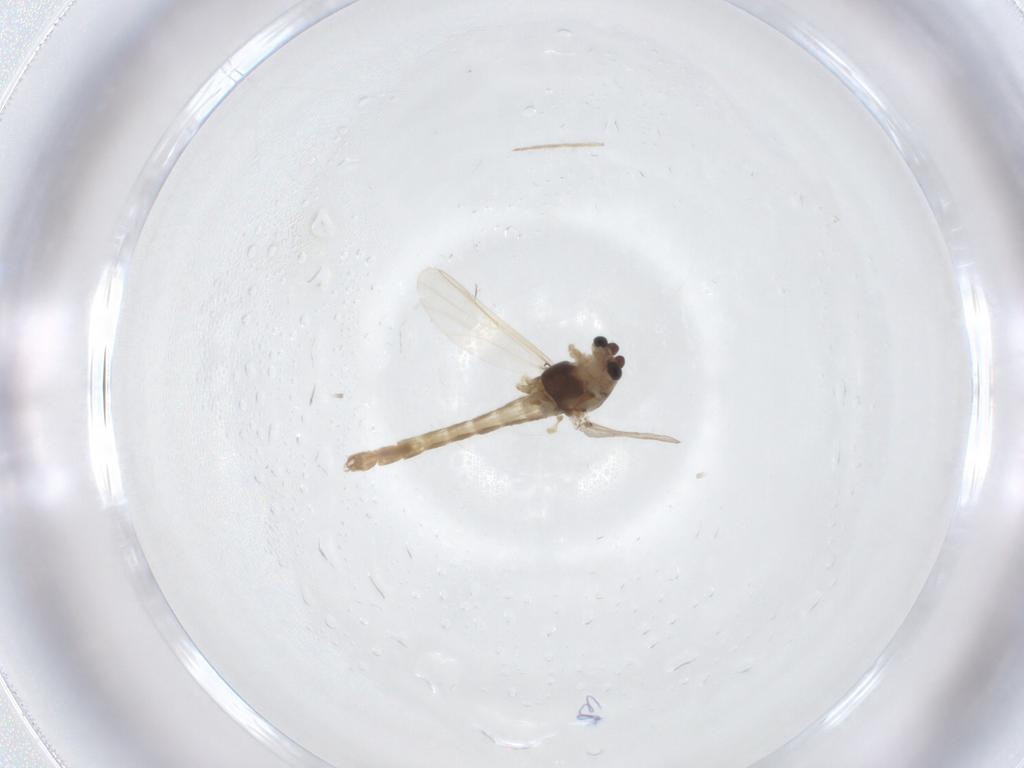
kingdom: Animalia
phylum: Arthropoda
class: Insecta
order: Diptera
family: Chironomidae
